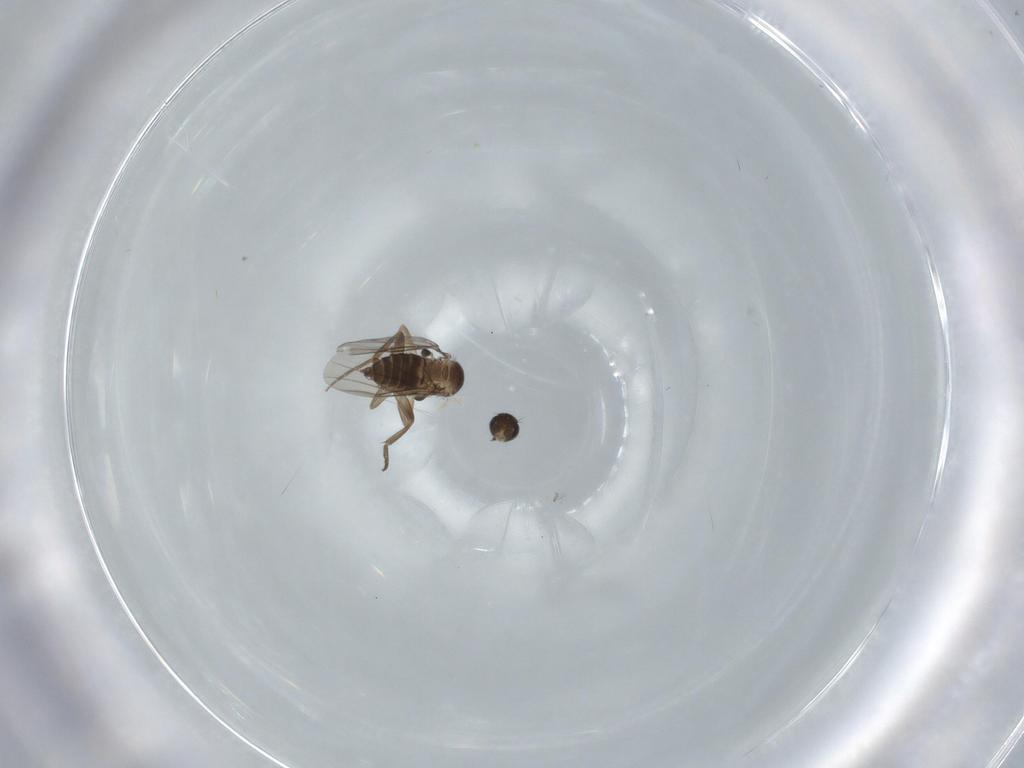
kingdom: Animalia
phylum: Arthropoda
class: Insecta
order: Diptera
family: Phoridae
